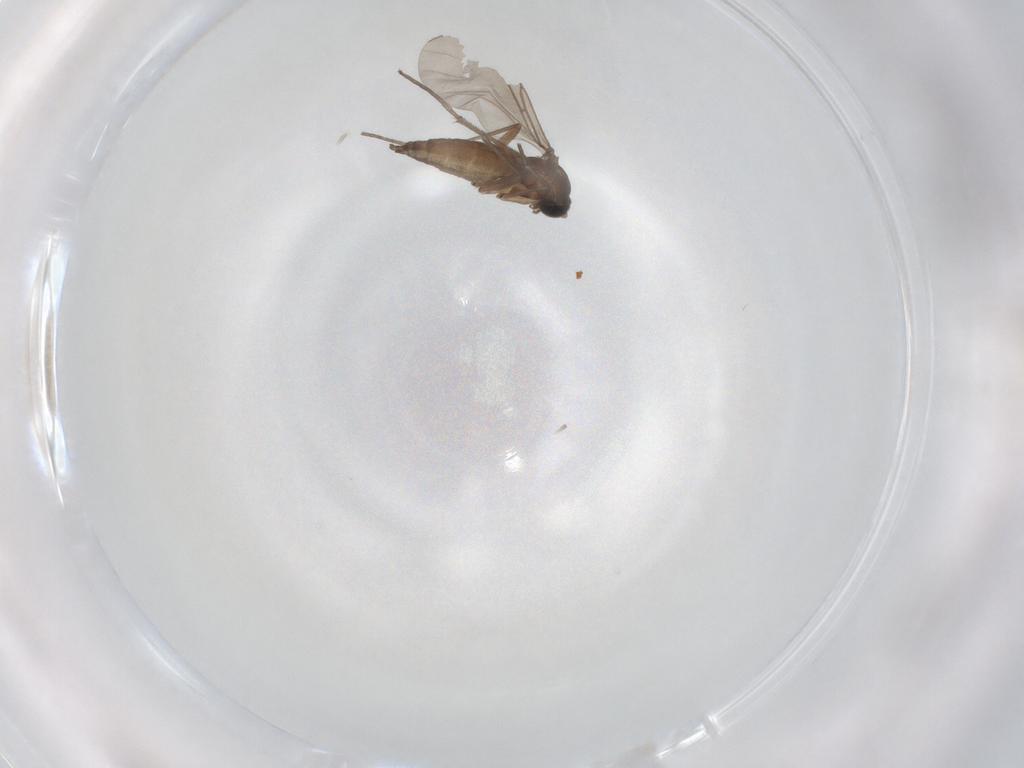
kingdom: Animalia
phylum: Arthropoda
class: Insecta
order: Diptera
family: Sciaridae
